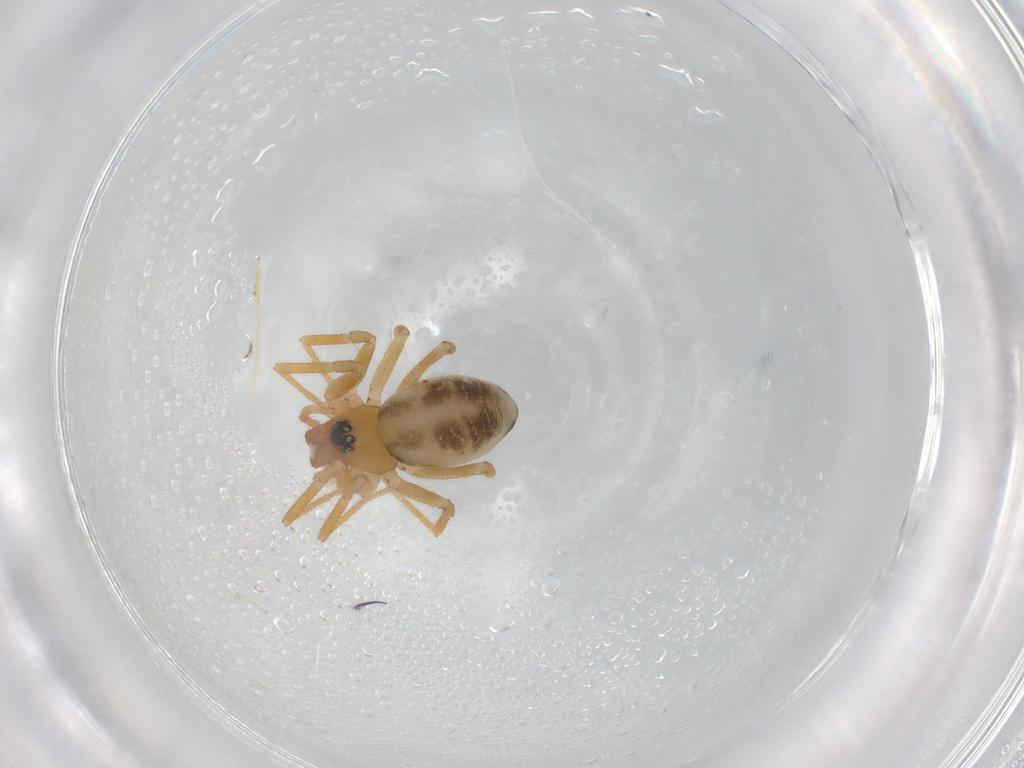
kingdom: Animalia
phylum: Arthropoda
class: Arachnida
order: Araneae
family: Linyphiidae
